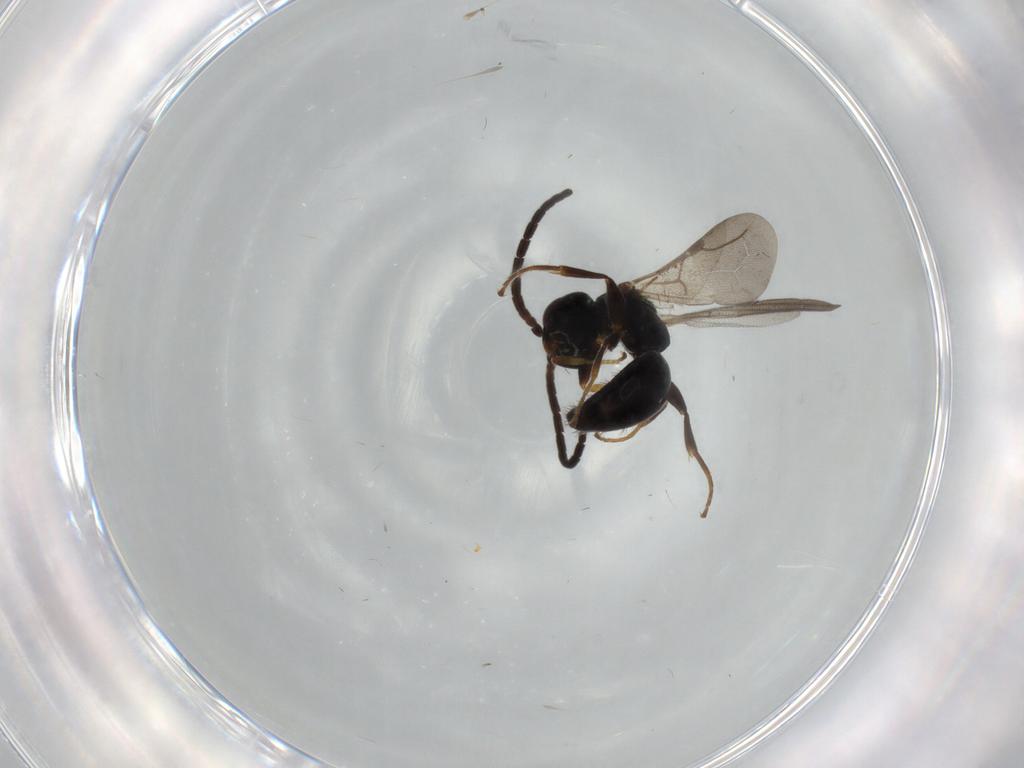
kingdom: Animalia
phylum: Arthropoda
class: Insecta
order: Hymenoptera
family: Bethylidae
